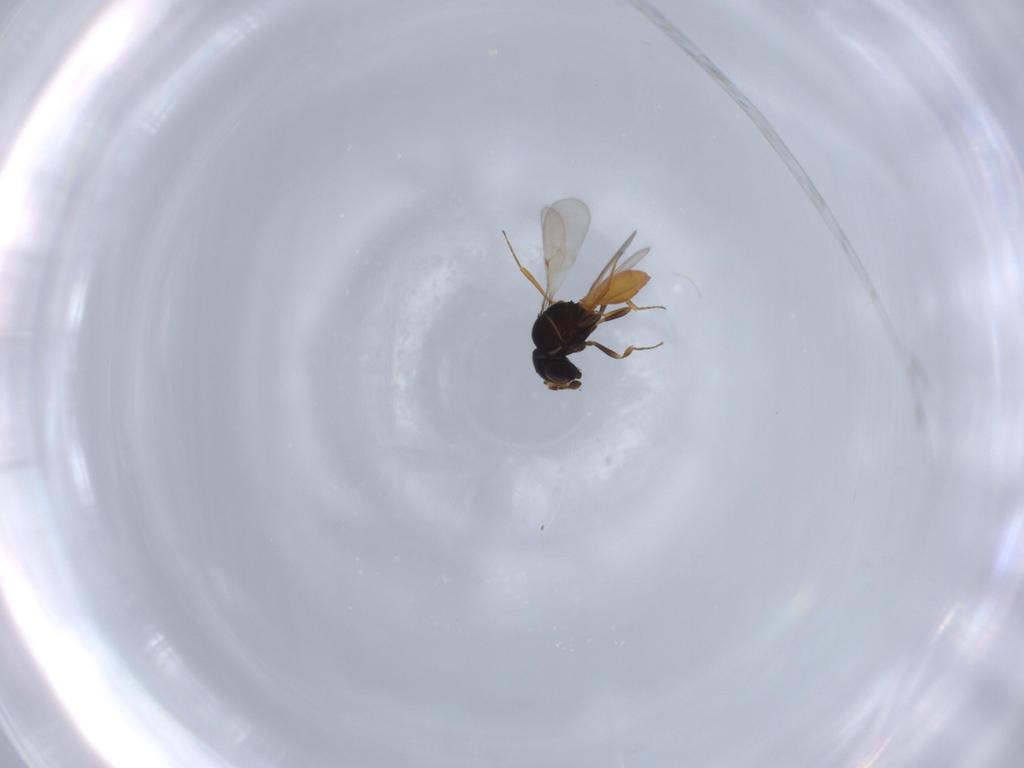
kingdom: Animalia
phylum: Arthropoda
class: Insecta
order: Hymenoptera
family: Scelionidae
